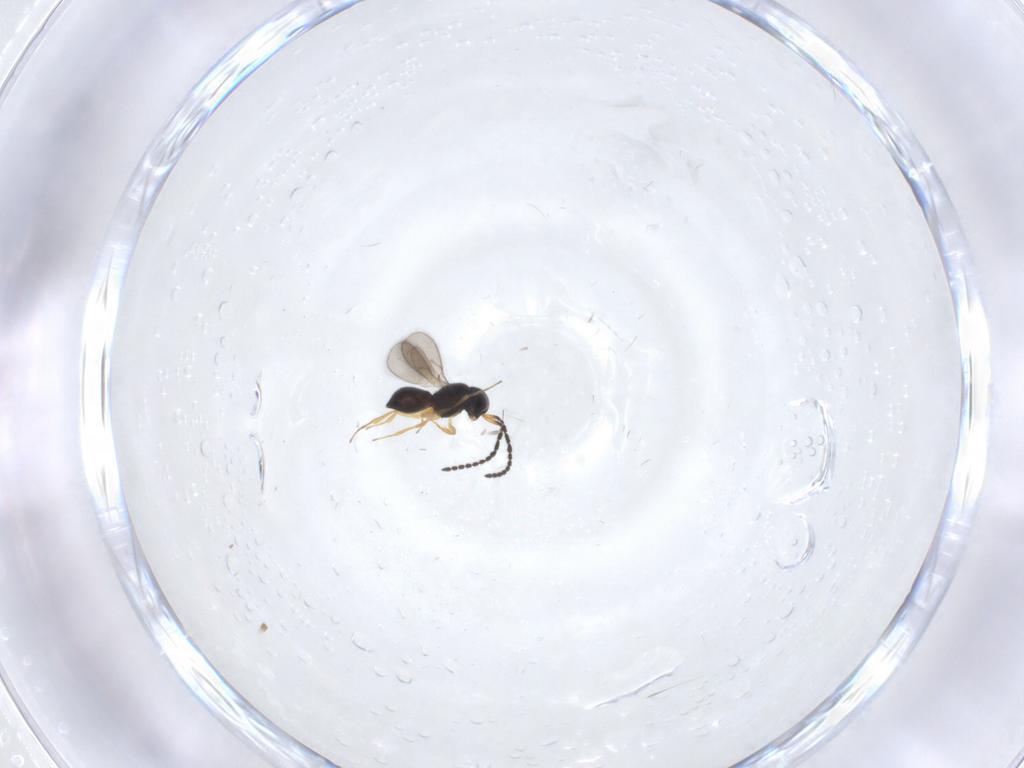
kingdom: Animalia
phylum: Arthropoda
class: Insecta
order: Hymenoptera
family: Scelionidae
